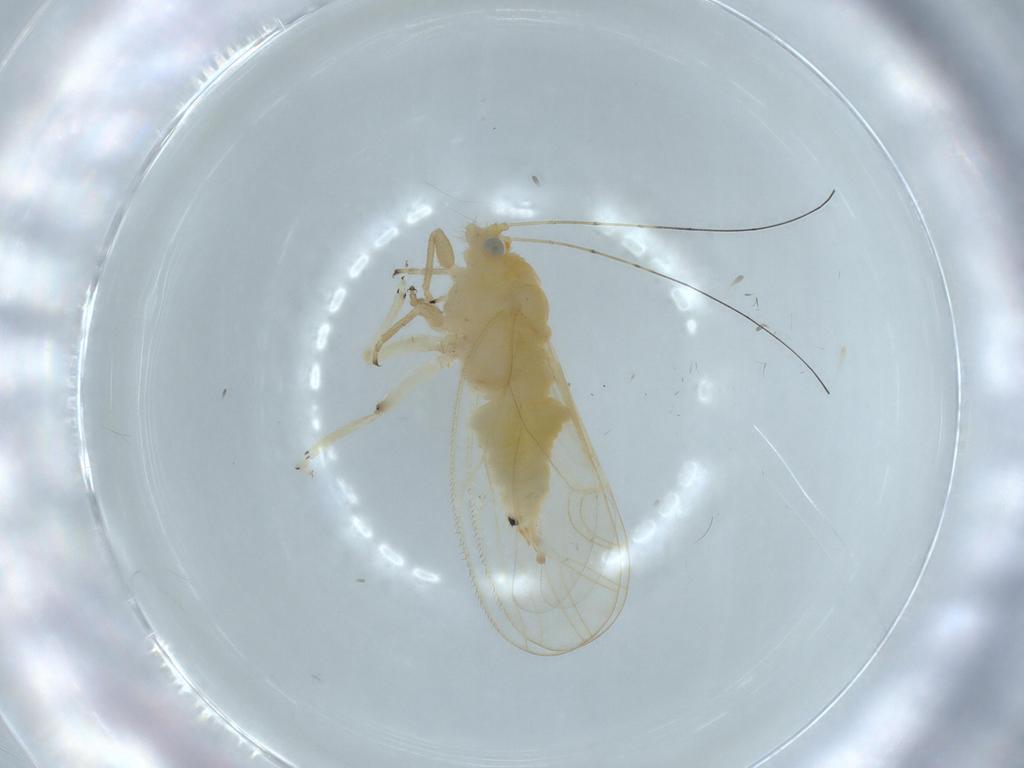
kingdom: Animalia
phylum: Arthropoda
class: Insecta
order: Hemiptera
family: Psyllidae
